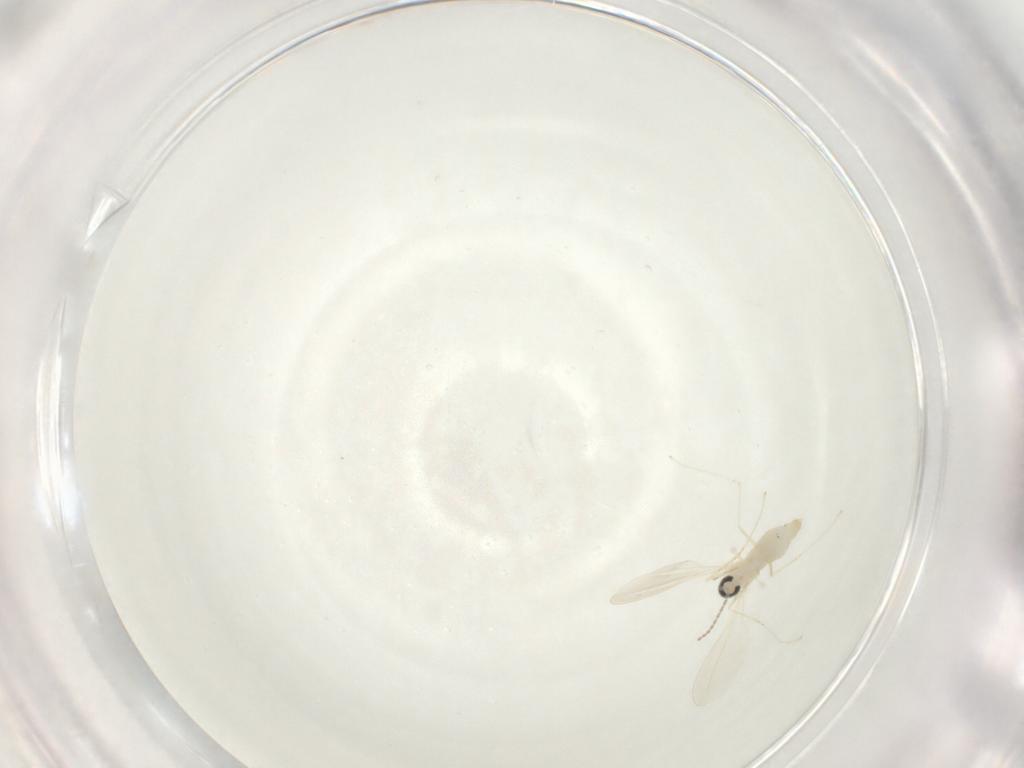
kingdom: Animalia
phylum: Arthropoda
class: Insecta
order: Diptera
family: Cecidomyiidae
